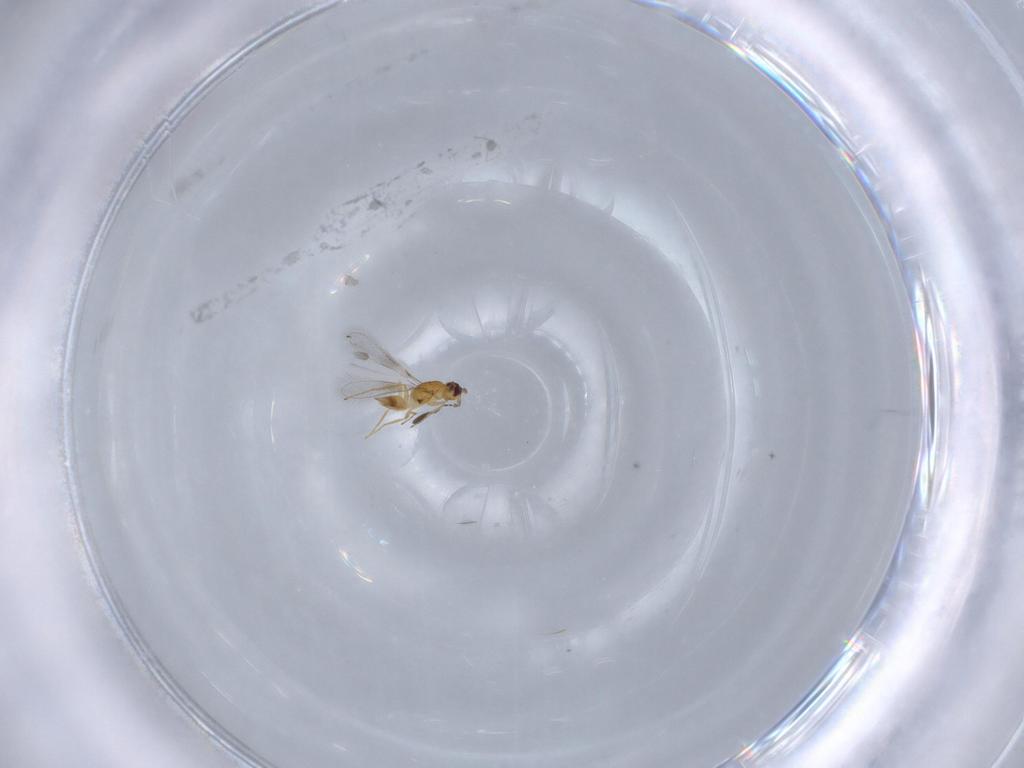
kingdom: Animalia
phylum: Arthropoda
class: Insecta
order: Hymenoptera
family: Mymaridae
